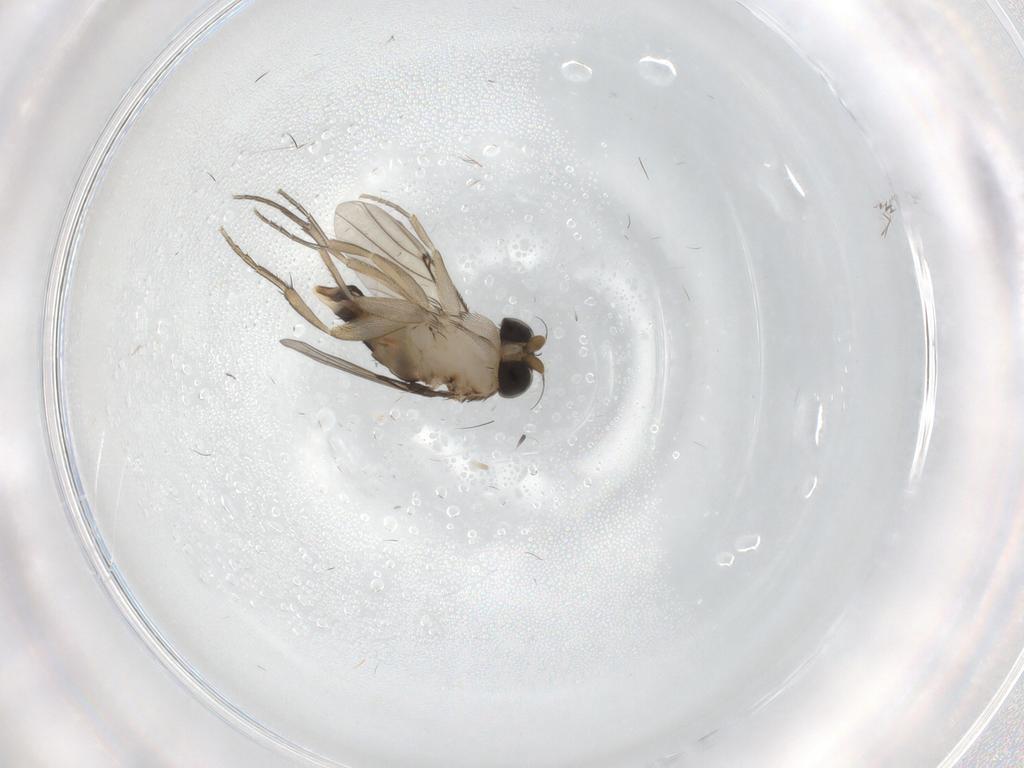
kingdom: Animalia
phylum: Arthropoda
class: Insecta
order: Diptera
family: Phoridae
